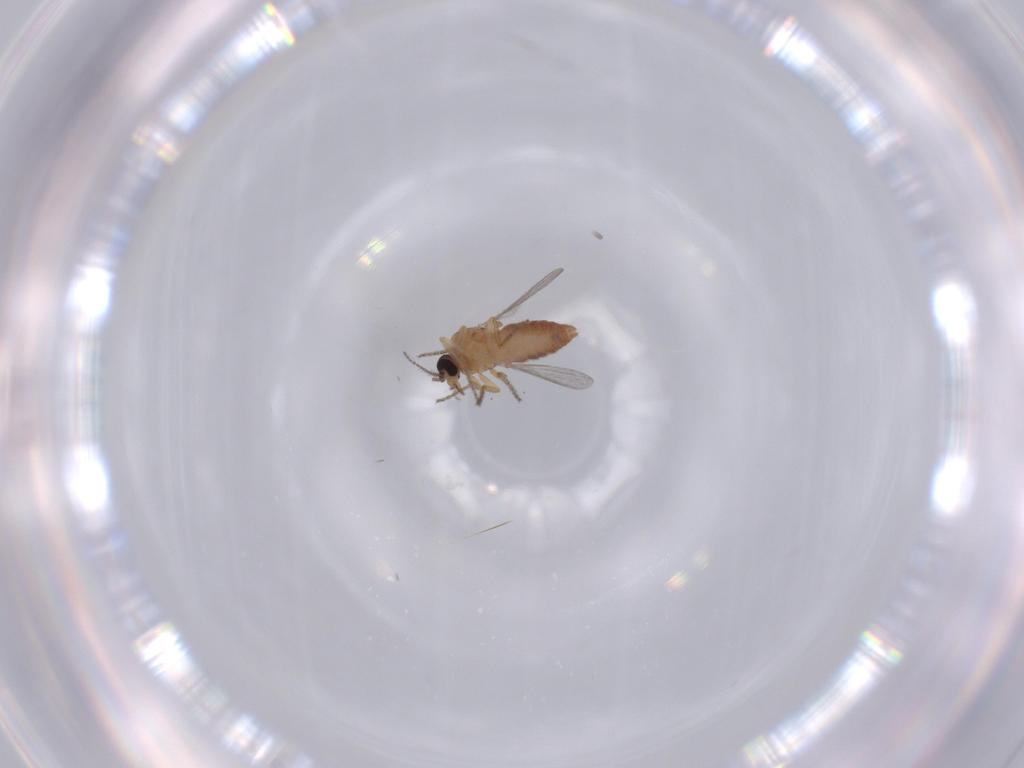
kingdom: Animalia
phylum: Arthropoda
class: Insecta
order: Diptera
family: Ceratopogonidae
